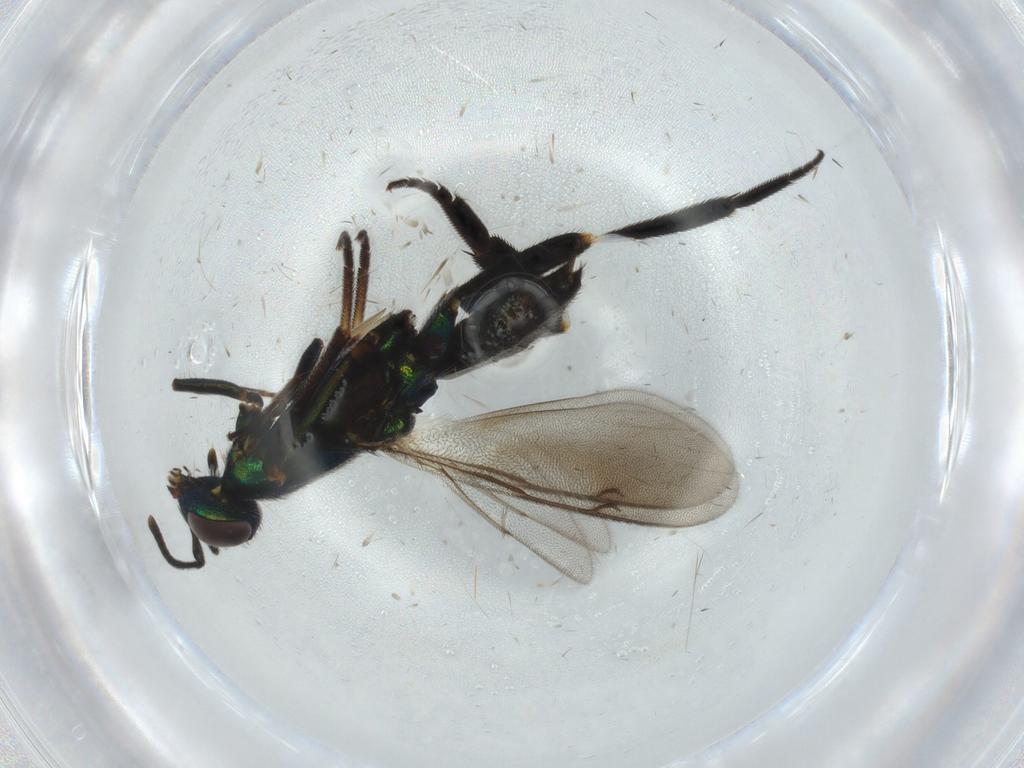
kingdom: Animalia
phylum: Arthropoda
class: Insecta
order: Hymenoptera
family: Eupelmidae
